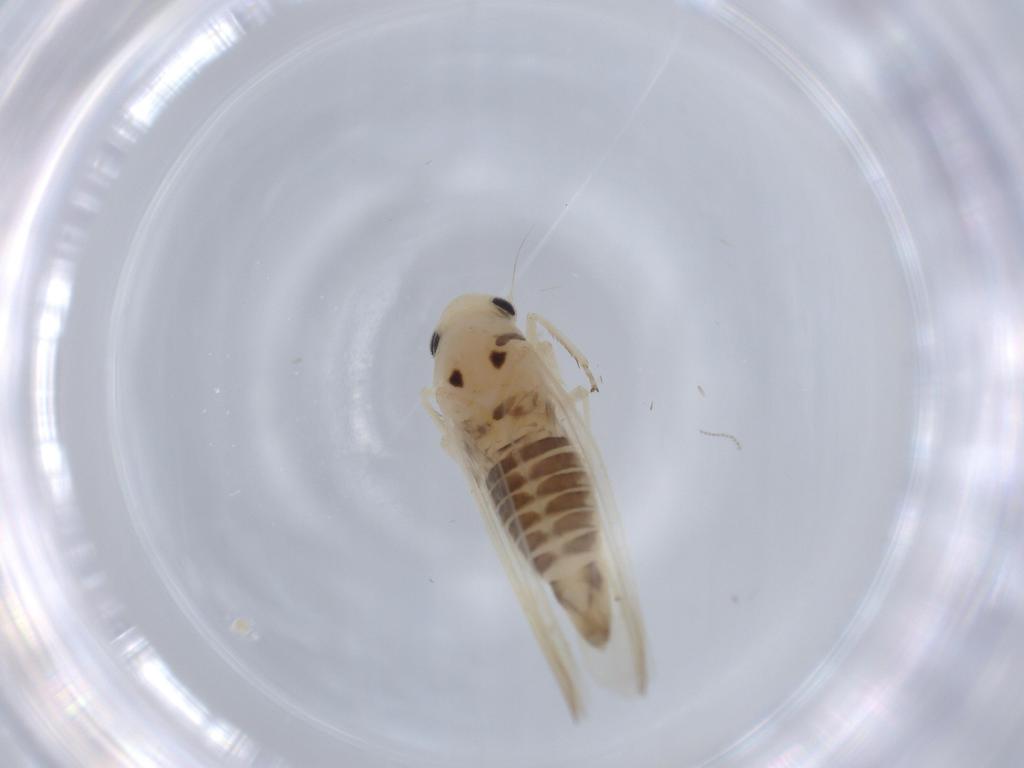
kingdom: Animalia
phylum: Arthropoda
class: Insecta
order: Hemiptera
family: Cicadellidae
